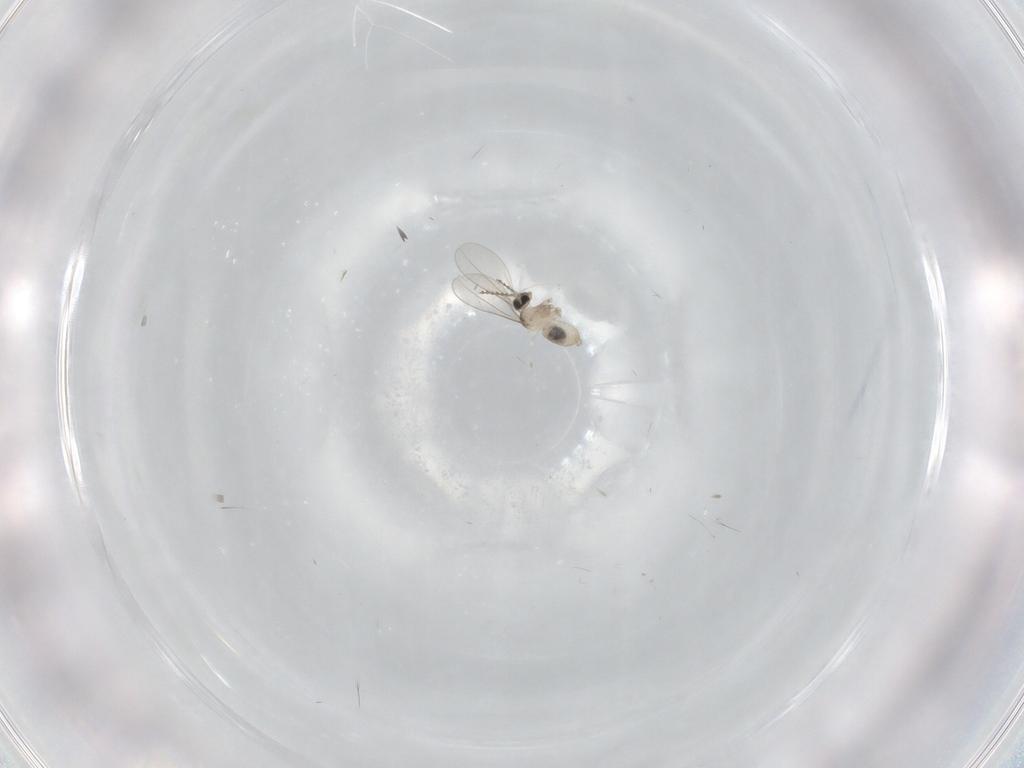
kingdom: Animalia
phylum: Arthropoda
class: Insecta
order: Diptera
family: Cecidomyiidae
